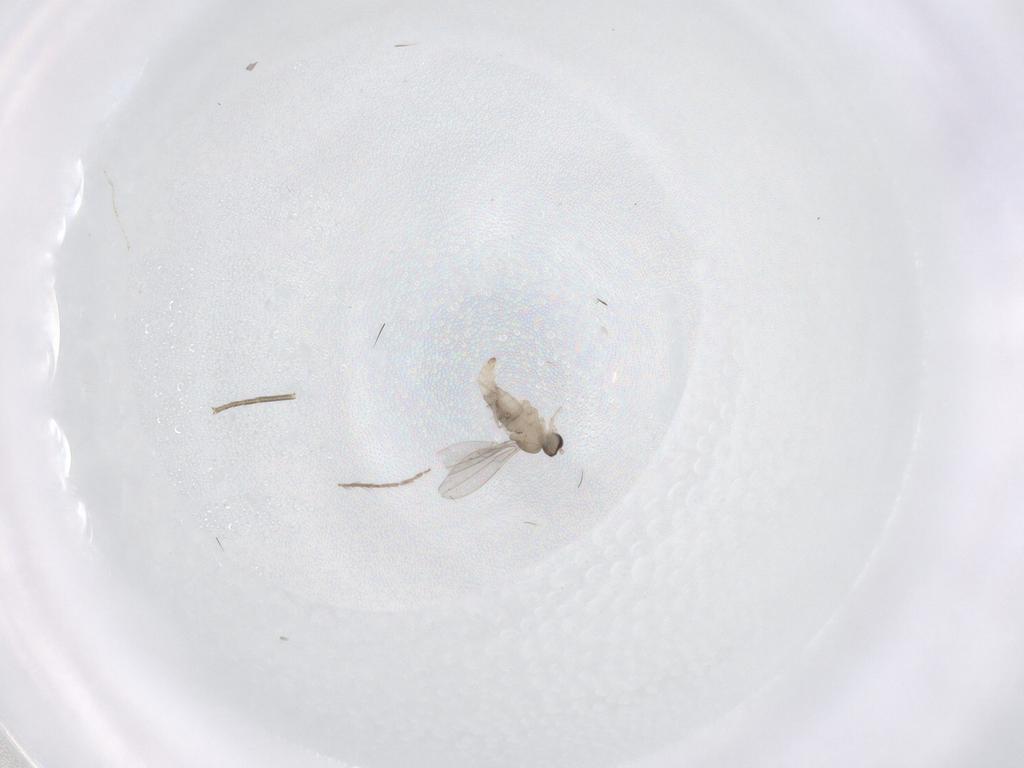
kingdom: Animalia
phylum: Arthropoda
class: Insecta
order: Diptera
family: Cecidomyiidae
